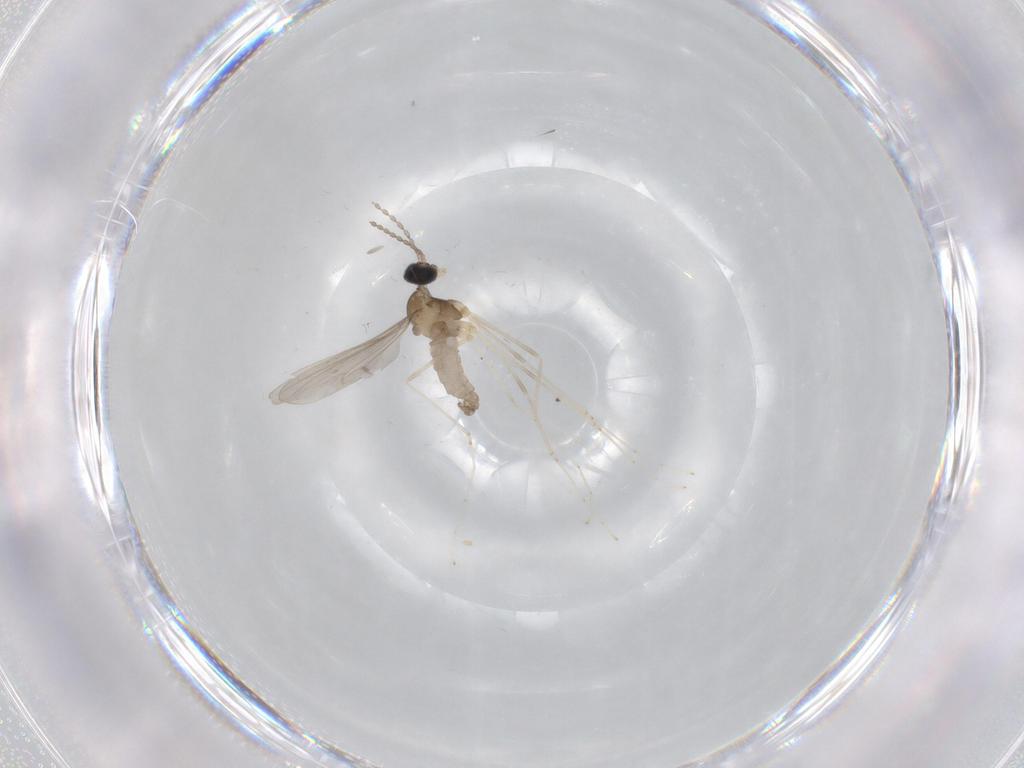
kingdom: Animalia
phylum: Arthropoda
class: Insecta
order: Diptera
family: Cecidomyiidae
